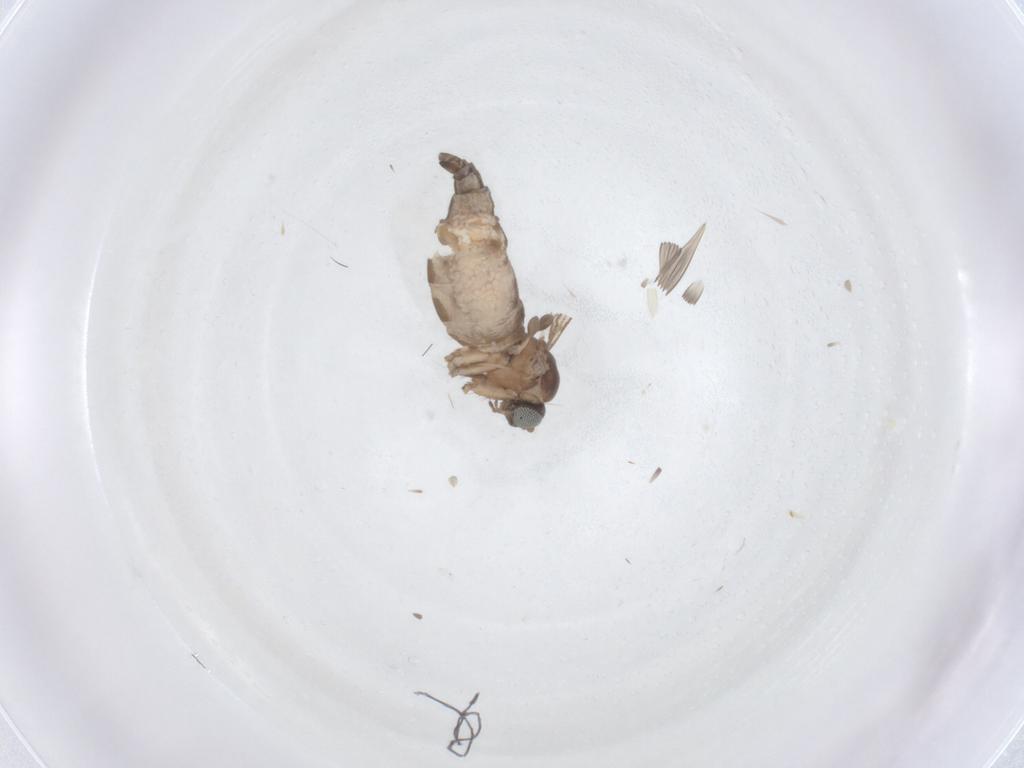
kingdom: Animalia
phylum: Arthropoda
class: Insecta
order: Diptera
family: Sciaridae
